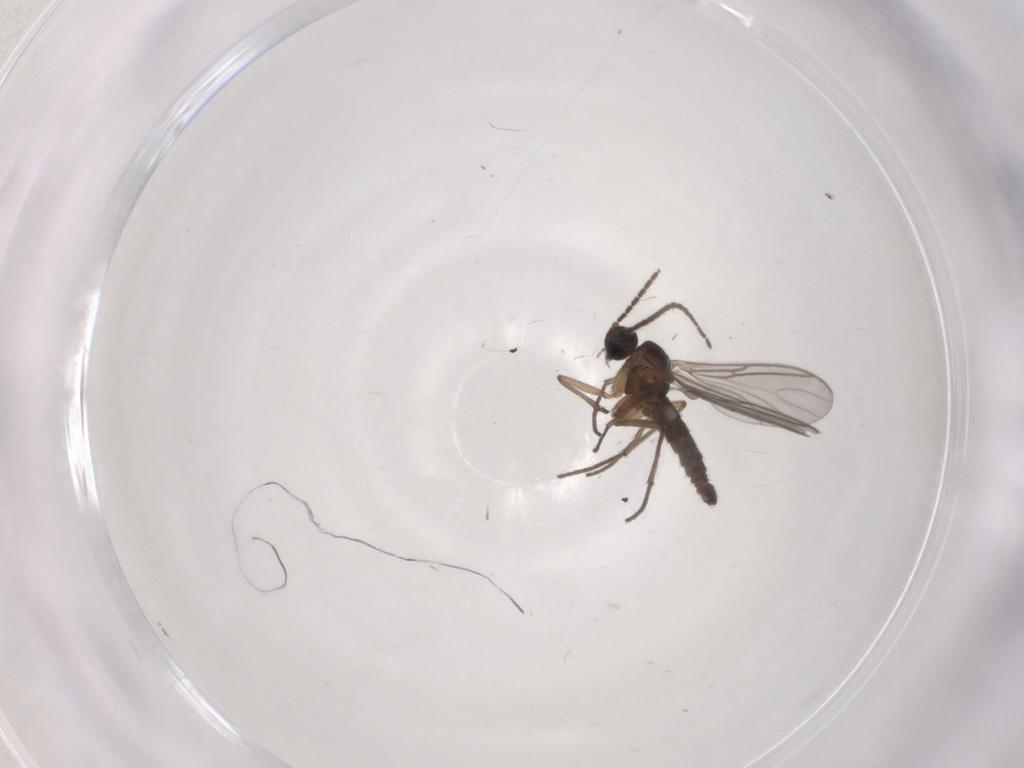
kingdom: Animalia
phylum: Arthropoda
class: Insecta
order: Diptera
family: Sciaridae
